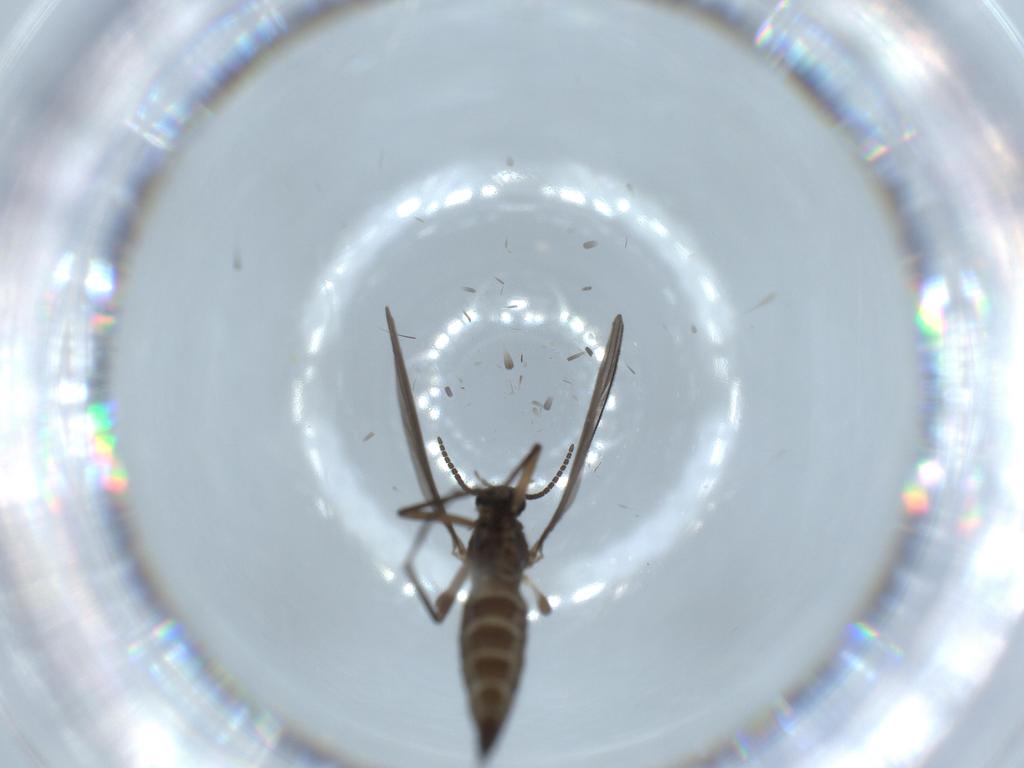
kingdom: Animalia
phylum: Arthropoda
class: Insecta
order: Diptera
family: Sciaridae
